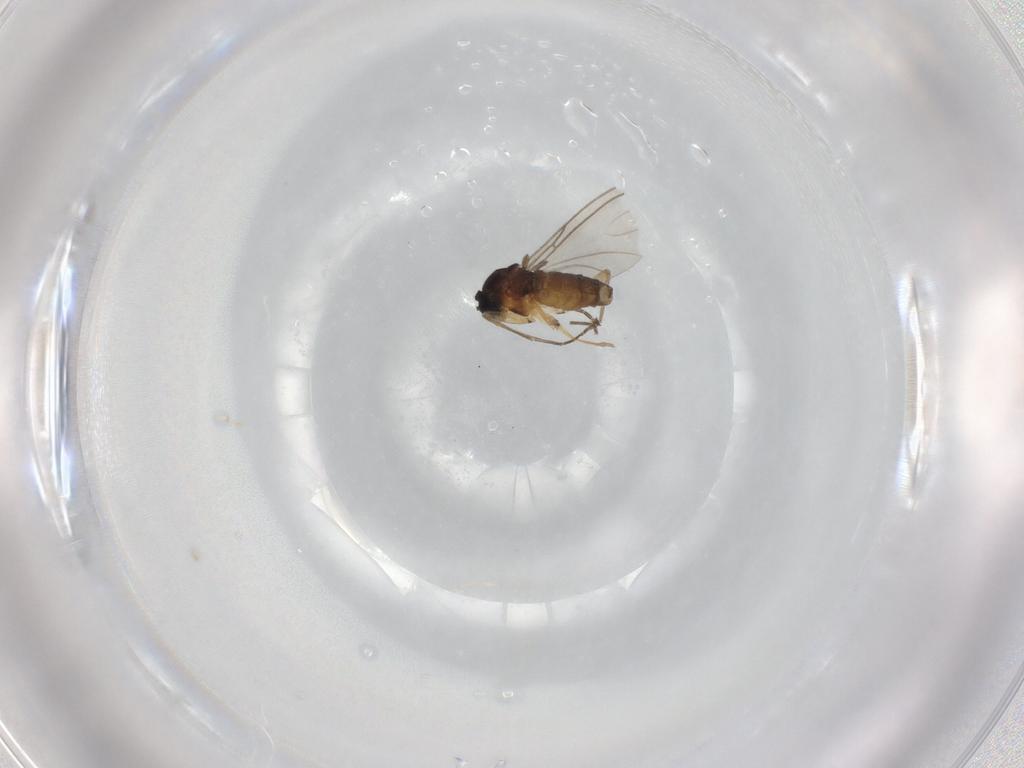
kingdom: Animalia
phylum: Arthropoda
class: Insecta
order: Diptera
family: Sciaridae
